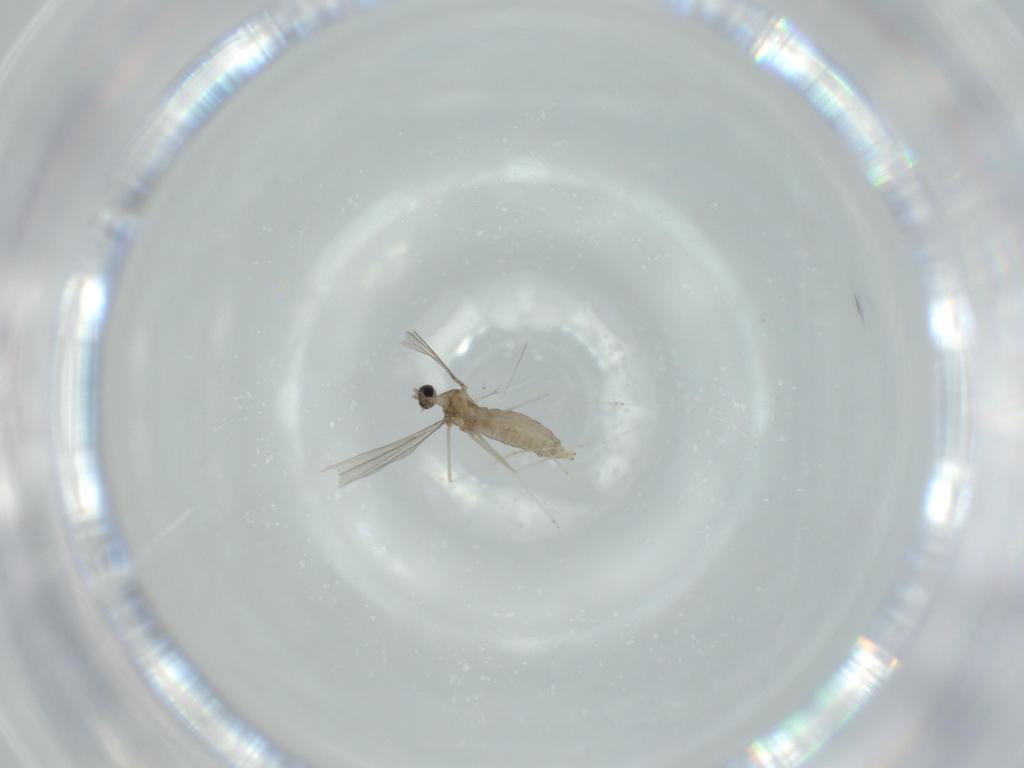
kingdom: Animalia
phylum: Arthropoda
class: Insecta
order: Diptera
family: Cecidomyiidae
